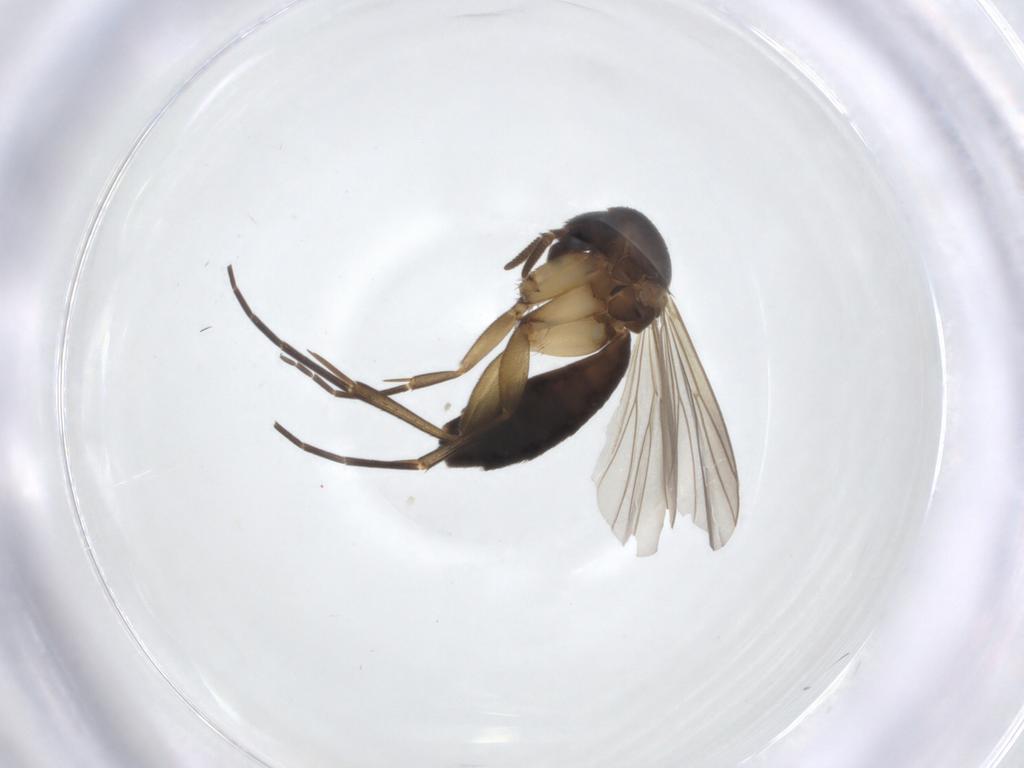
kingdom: Animalia
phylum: Arthropoda
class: Insecta
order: Diptera
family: Mycetophilidae
